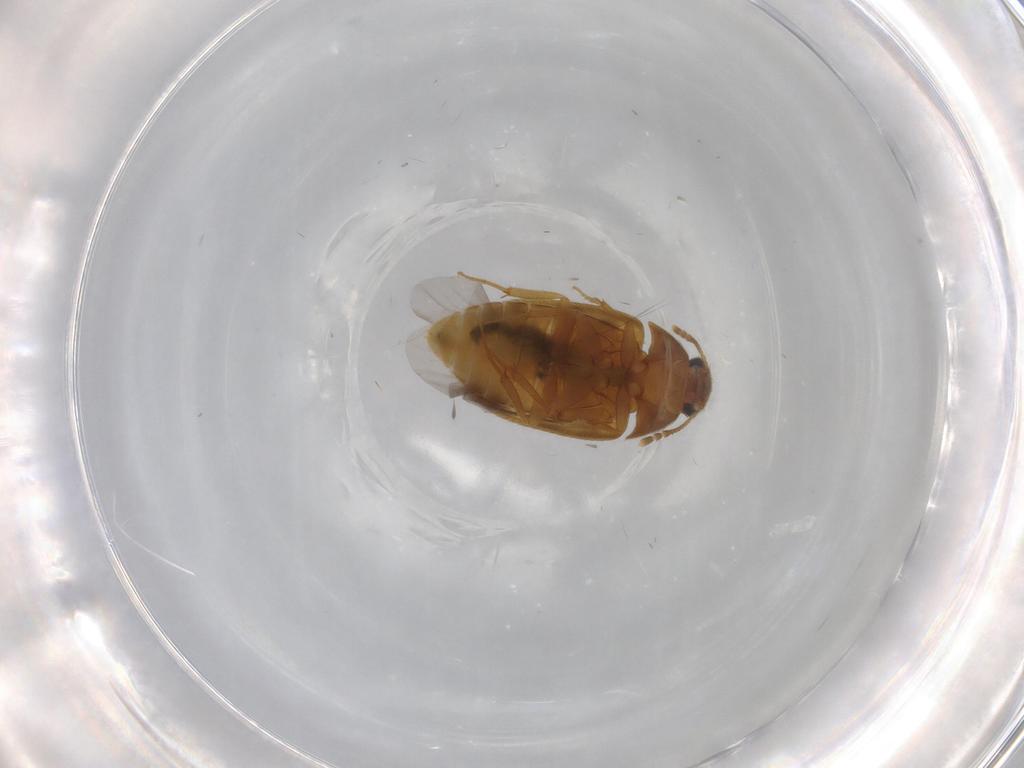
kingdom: Animalia
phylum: Arthropoda
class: Insecta
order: Coleoptera
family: Mycetophagidae
